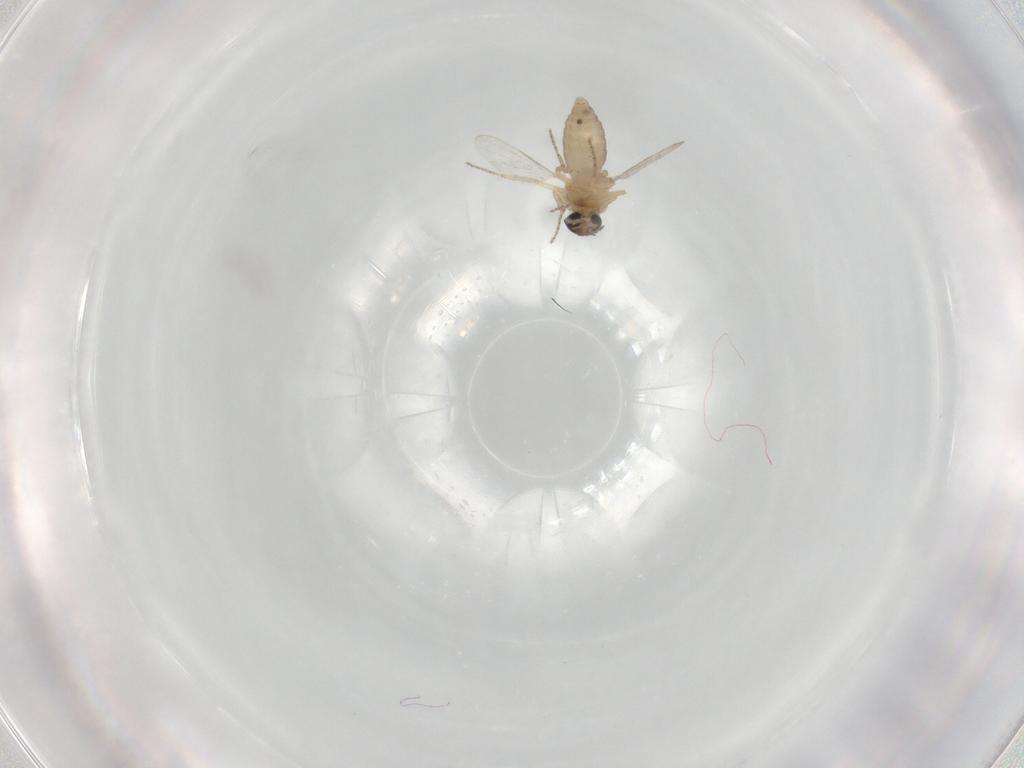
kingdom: Animalia
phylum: Arthropoda
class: Insecta
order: Diptera
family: Ceratopogonidae
